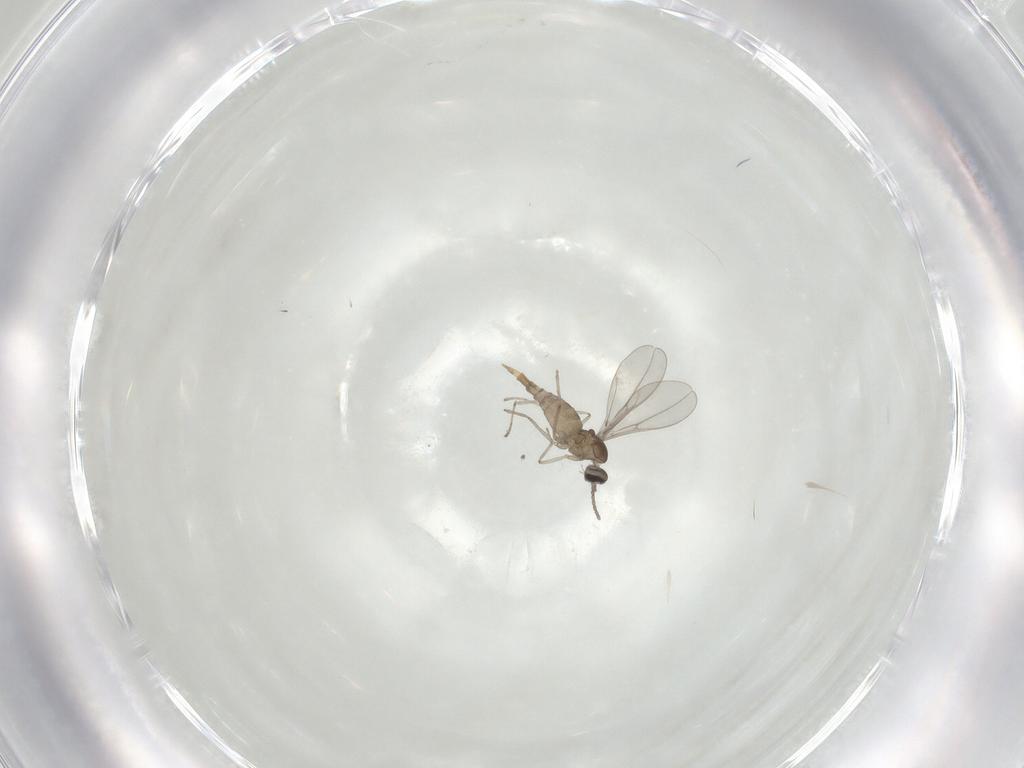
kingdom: Animalia
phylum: Arthropoda
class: Insecta
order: Diptera
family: Cecidomyiidae
